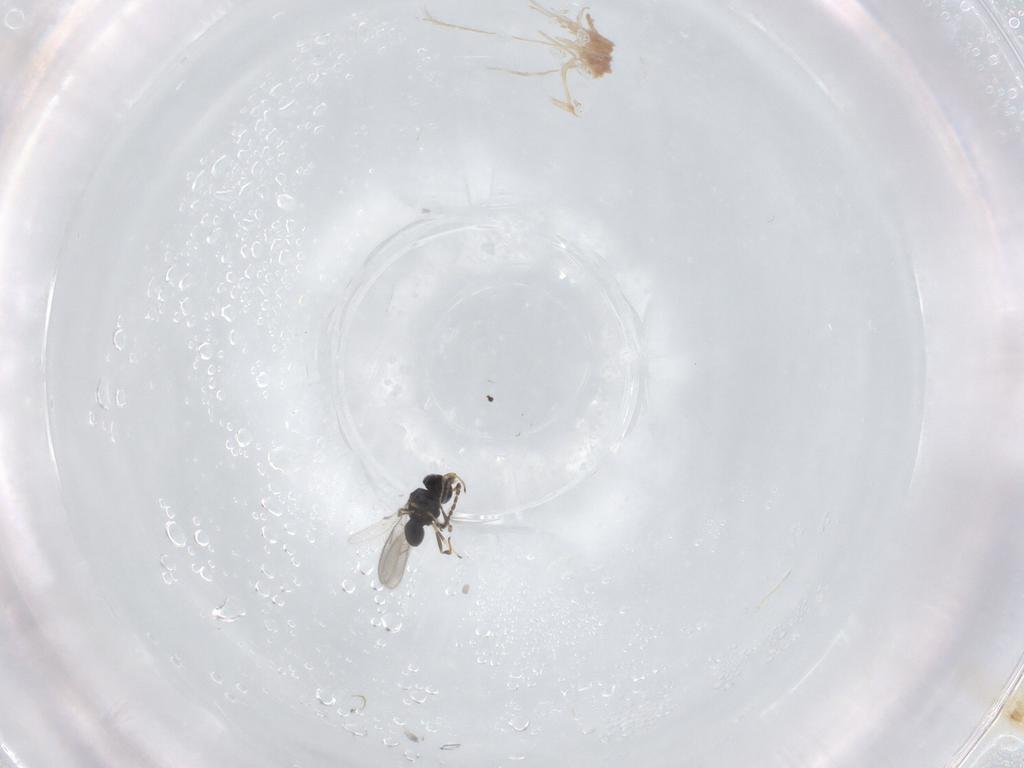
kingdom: Animalia
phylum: Arthropoda
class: Insecta
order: Hymenoptera
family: Scelionidae
